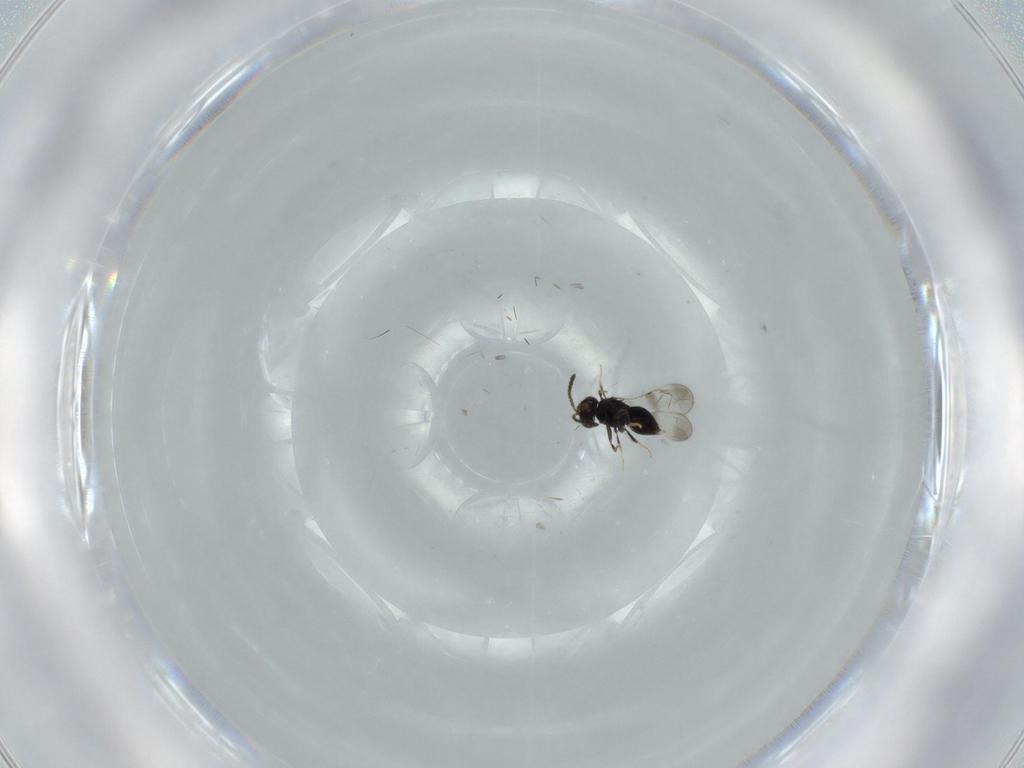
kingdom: Animalia
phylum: Arthropoda
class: Insecta
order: Hymenoptera
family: Ceraphronidae
